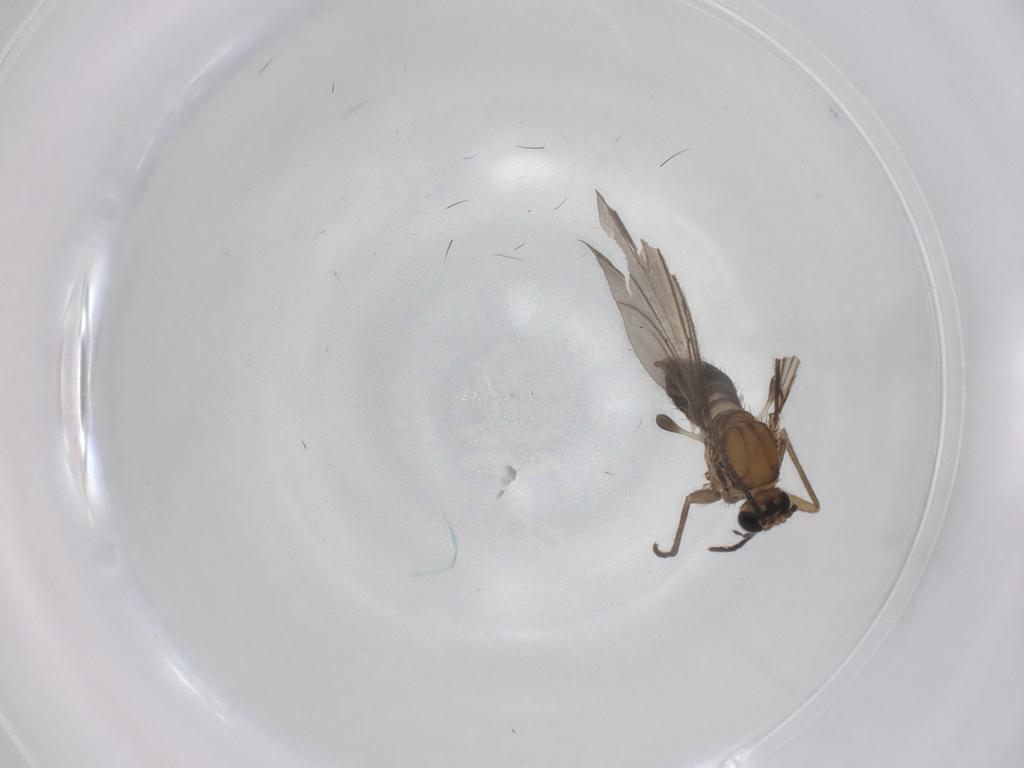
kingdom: Animalia
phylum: Arthropoda
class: Insecta
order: Diptera
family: Sciaridae
